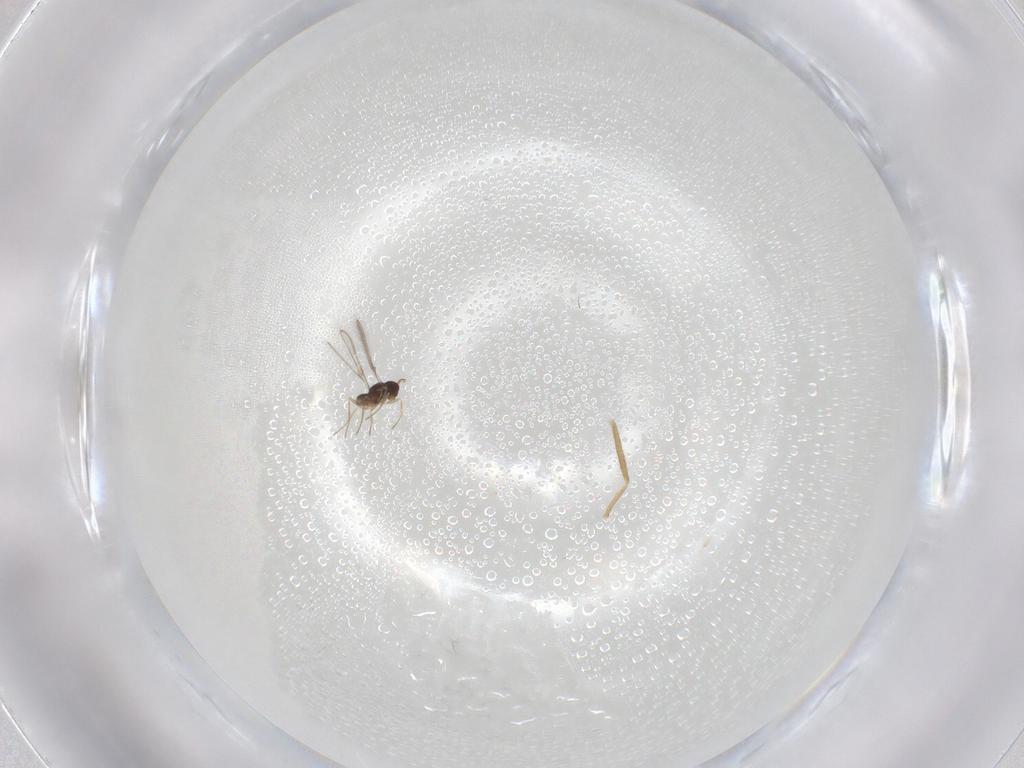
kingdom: Animalia
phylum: Arthropoda
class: Insecta
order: Hymenoptera
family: Mymaridae
